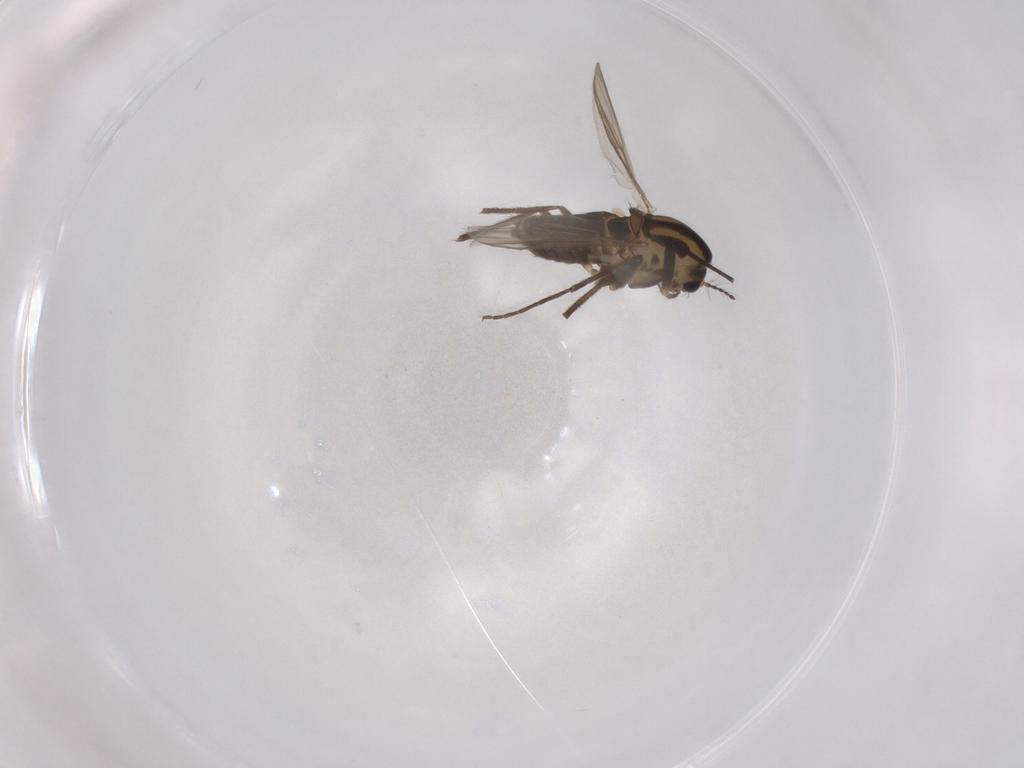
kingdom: Animalia
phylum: Arthropoda
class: Insecta
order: Diptera
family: Chironomidae
